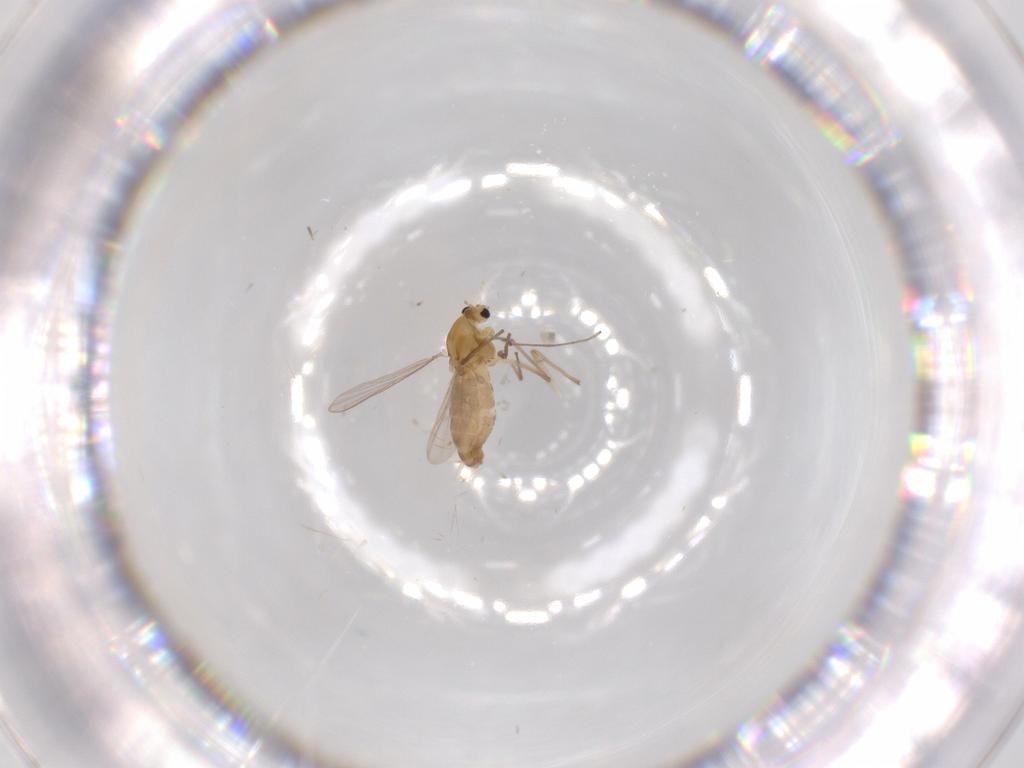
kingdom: Animalia
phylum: Arthropoda
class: Insecta
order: Diptera
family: Chironomidae
